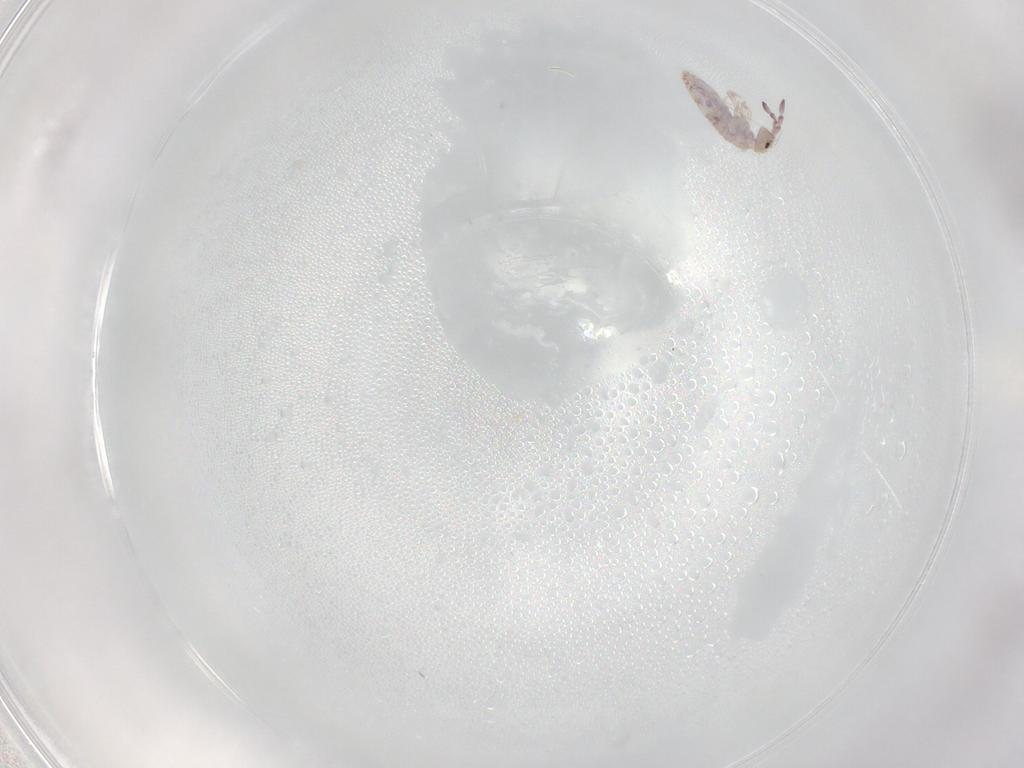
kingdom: Animalia
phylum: Arthropoda
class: Collembola
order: Entomobryomorpha
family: Entomobryidae
